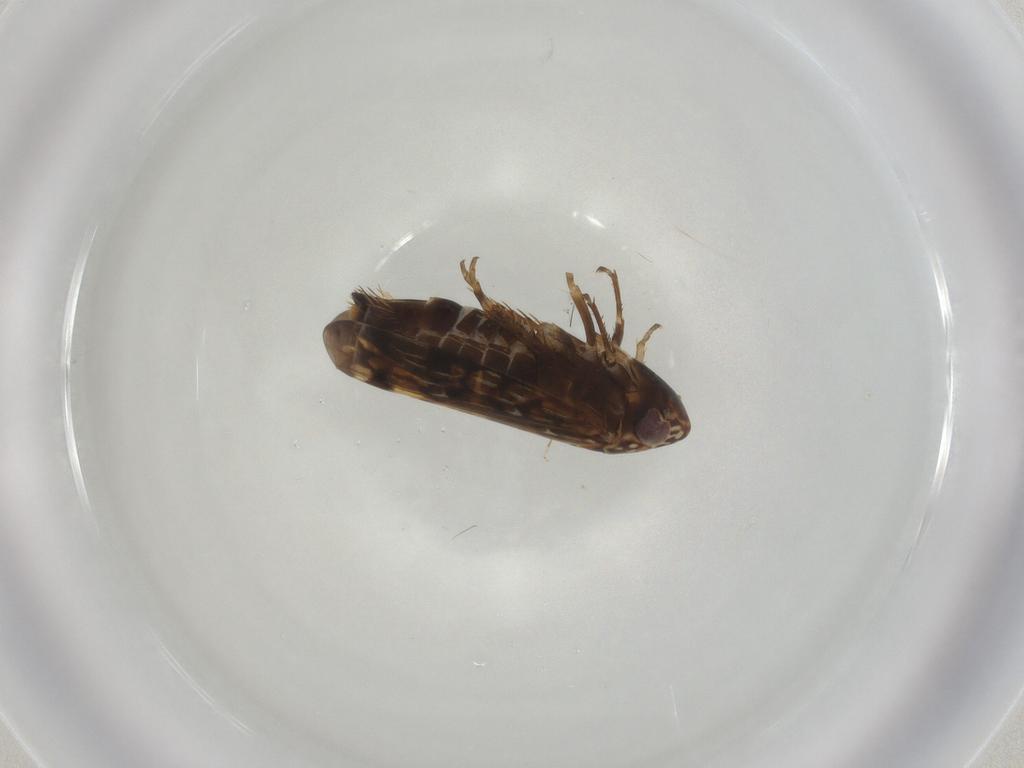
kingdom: Animalia
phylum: Arthropoda
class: Insecta
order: Hemiptera
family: Cicadellidae
